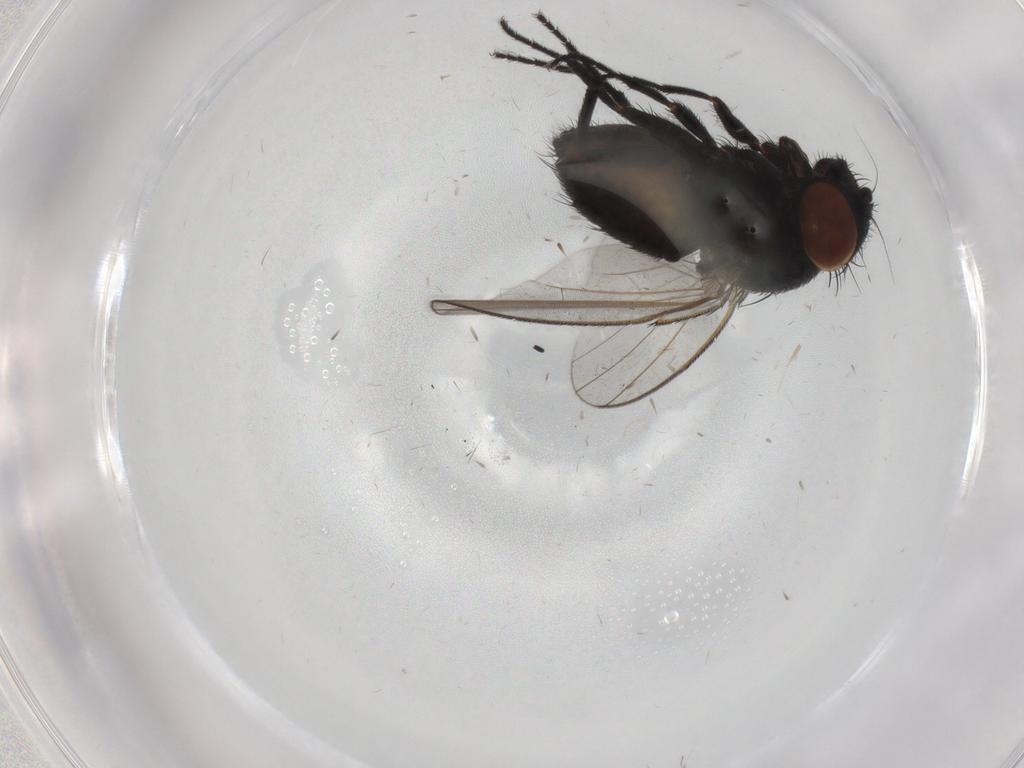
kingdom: Animalia
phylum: Arthropoda
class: Insecta
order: Diptera
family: Milichiidae
